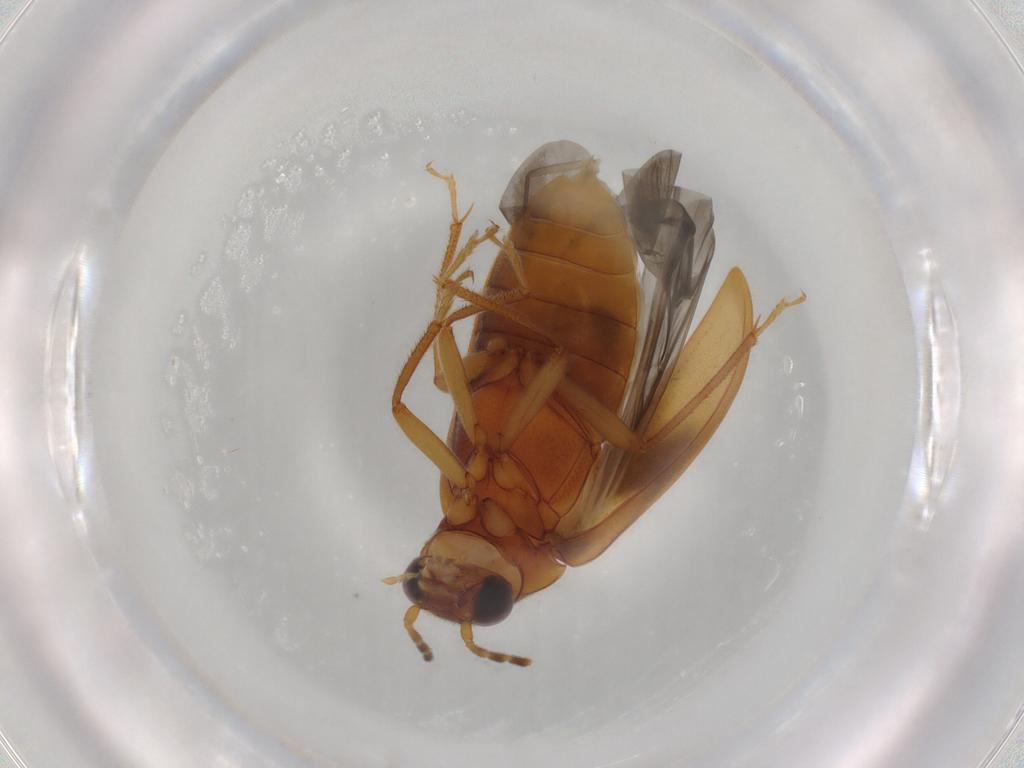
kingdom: Animalia
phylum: Arthropoda
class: Insecta
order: Coleoptera
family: Ptilodactylidae
